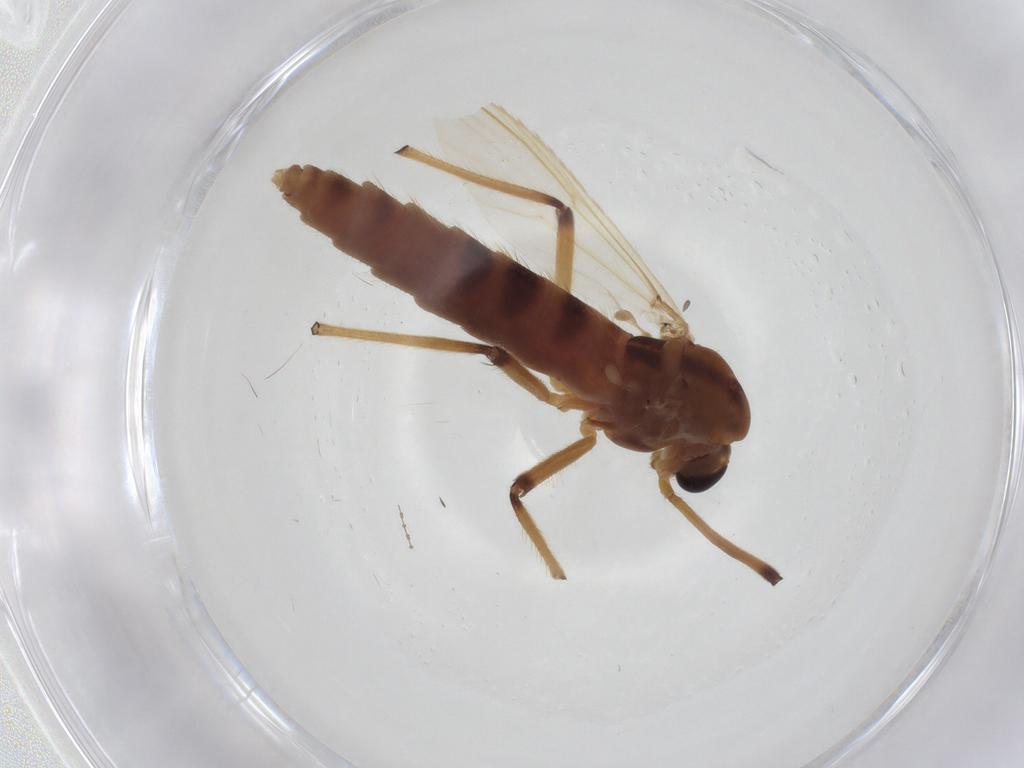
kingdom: Animalia
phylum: Arthropoda
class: Insecta
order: Diptera
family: Chironomidae
